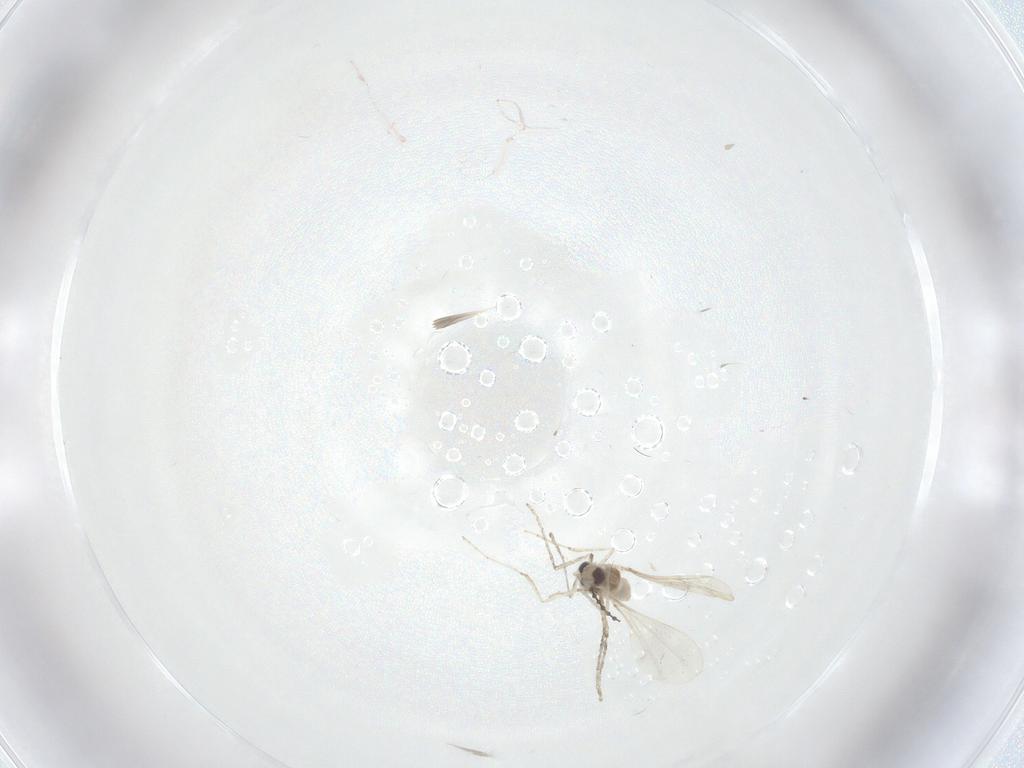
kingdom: Animalia
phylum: Arthropoda
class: Insecta
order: Diptera
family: Cecidomyiidae
